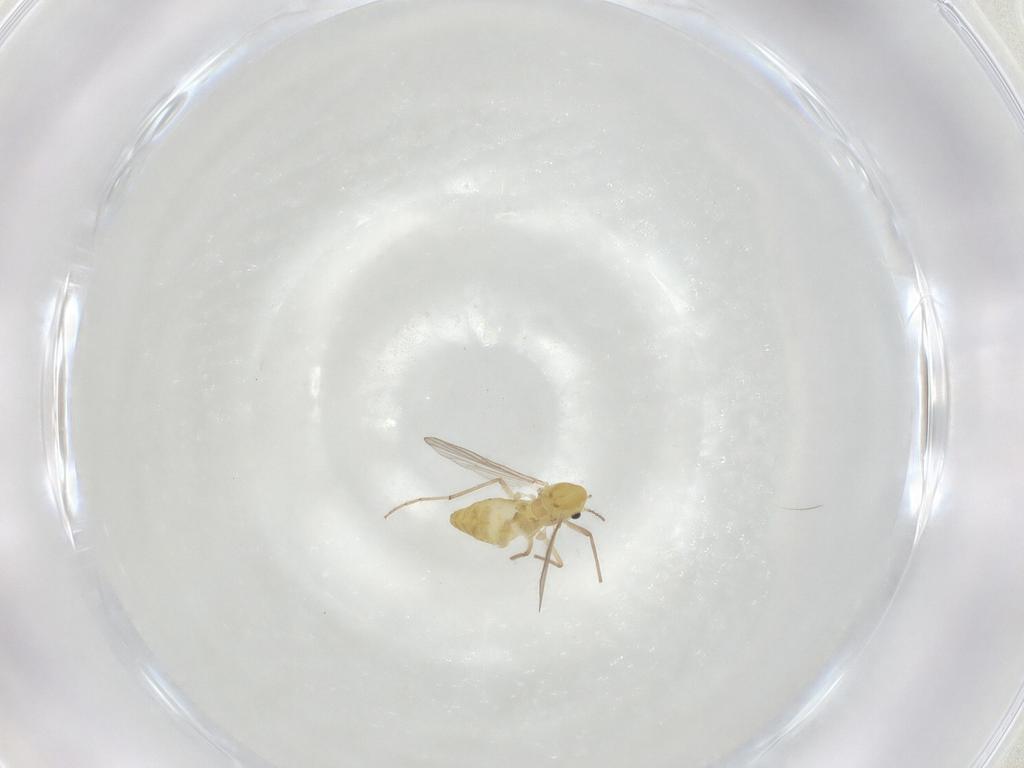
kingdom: Animalia
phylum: Arthropoda
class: Insecta
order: Diptera
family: Chironomidae
